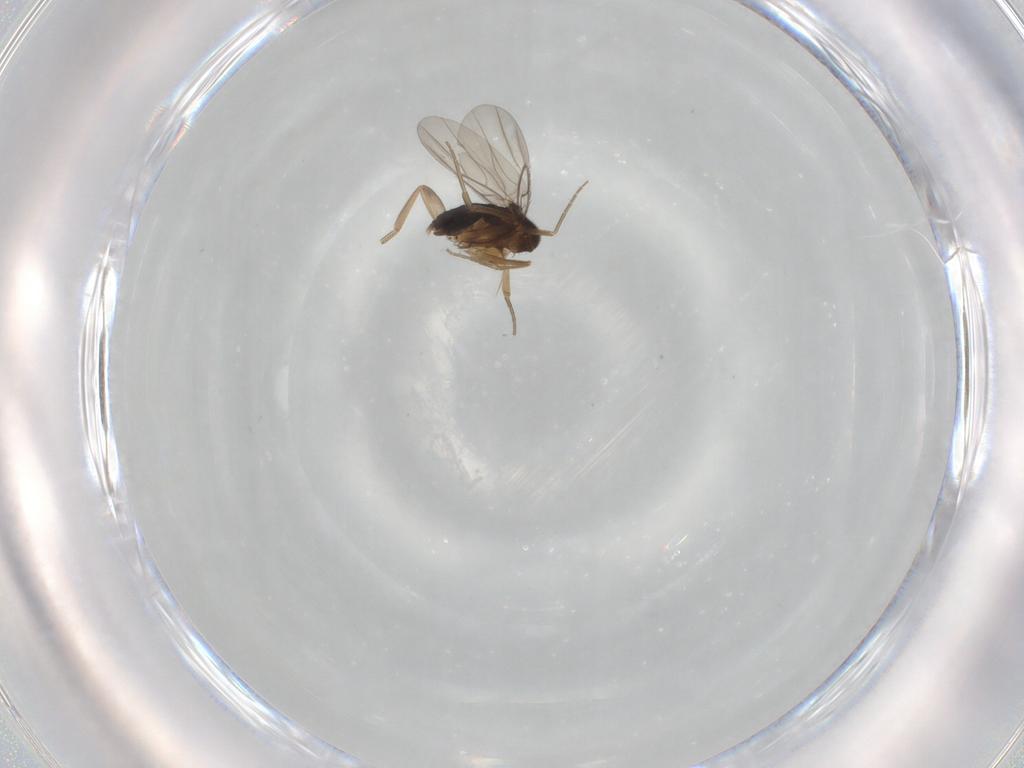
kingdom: Animalia
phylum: Arthropoda
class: Insecta
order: Diptera
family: Phoridae
